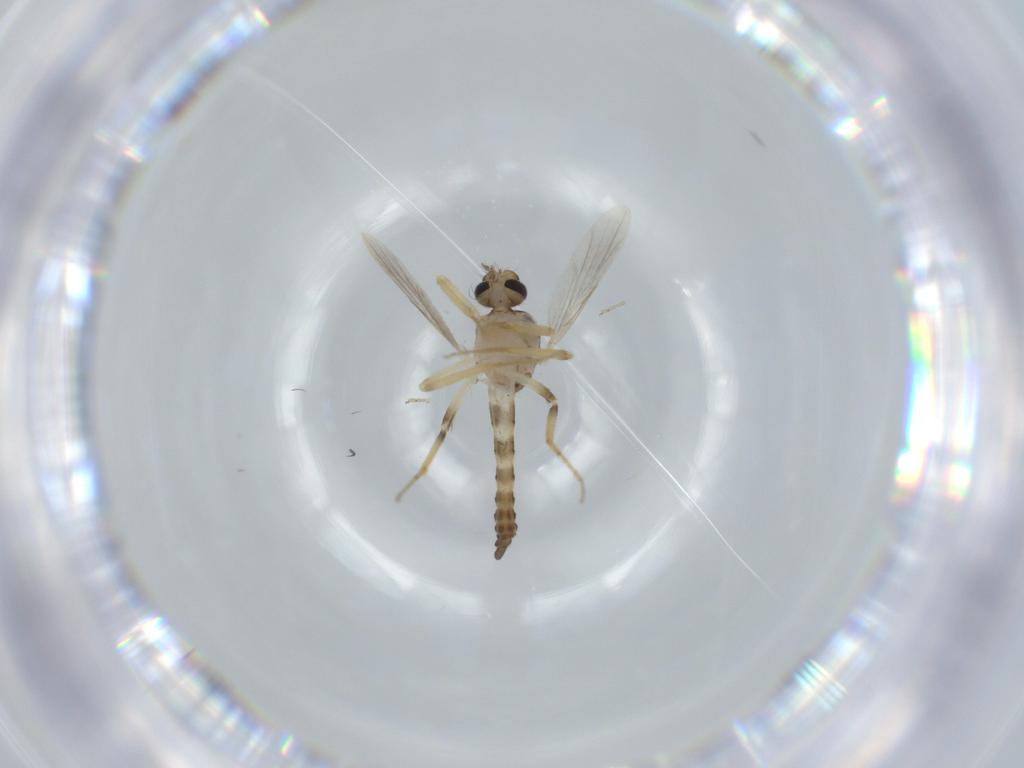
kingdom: Animalia
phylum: Arthropoda
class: Insecta
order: Diptera
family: Ceratopogonidae
